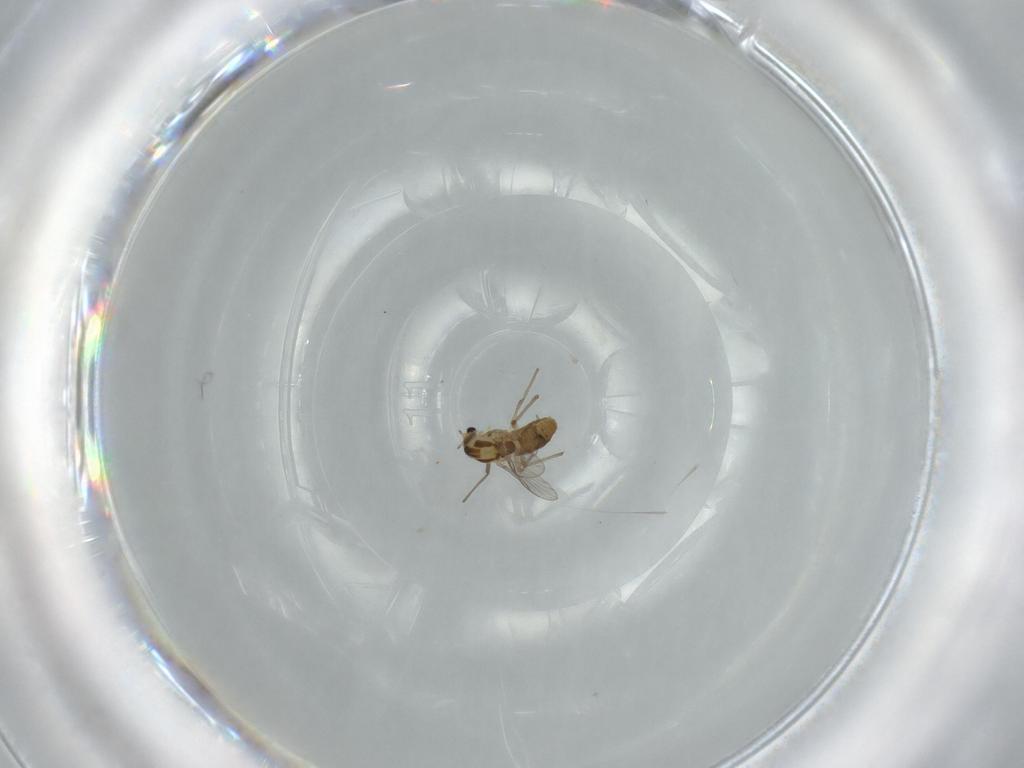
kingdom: Animalia
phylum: Arthropoda
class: Insecta
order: Diptera
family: Chironomidae
